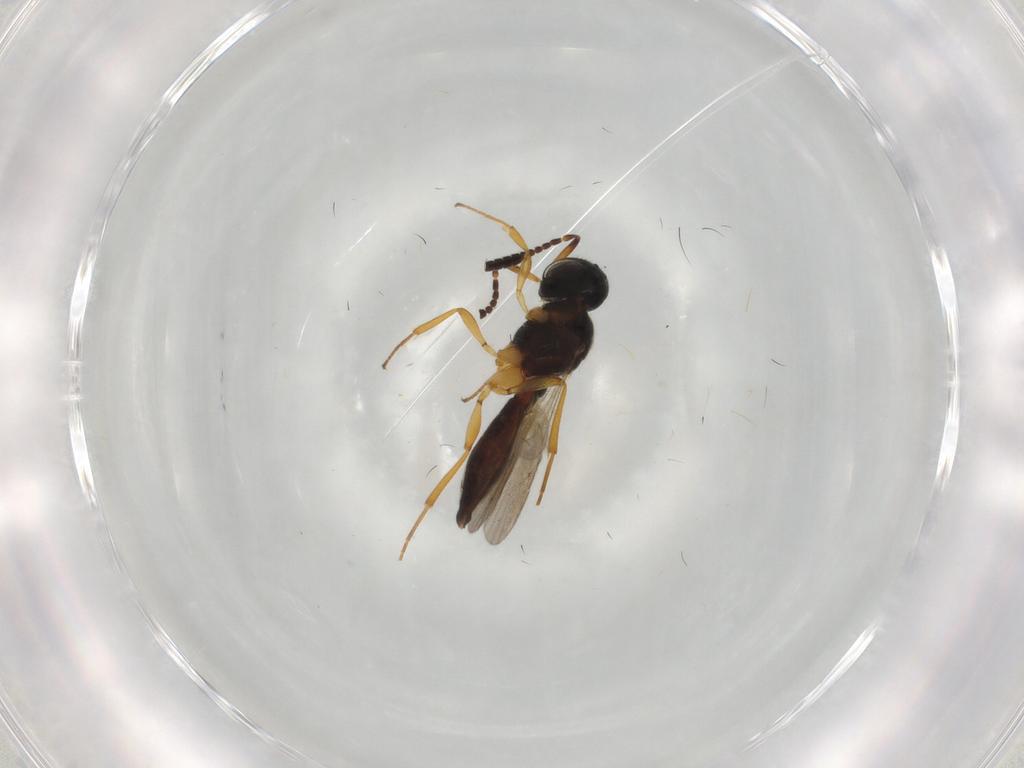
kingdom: Animalia
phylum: Arthropoda
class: Insecta
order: Hymenoptera
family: Scelionidae
